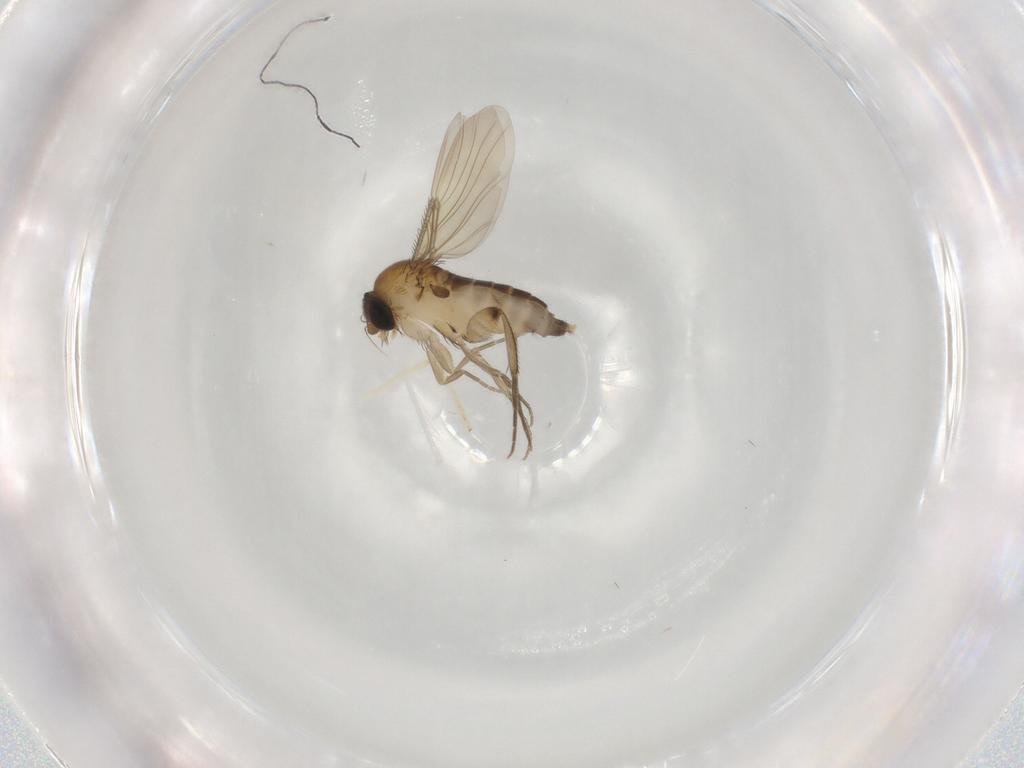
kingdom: Animalia
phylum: Arthropoda
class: Insecta
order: Diptera
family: Phoridae
